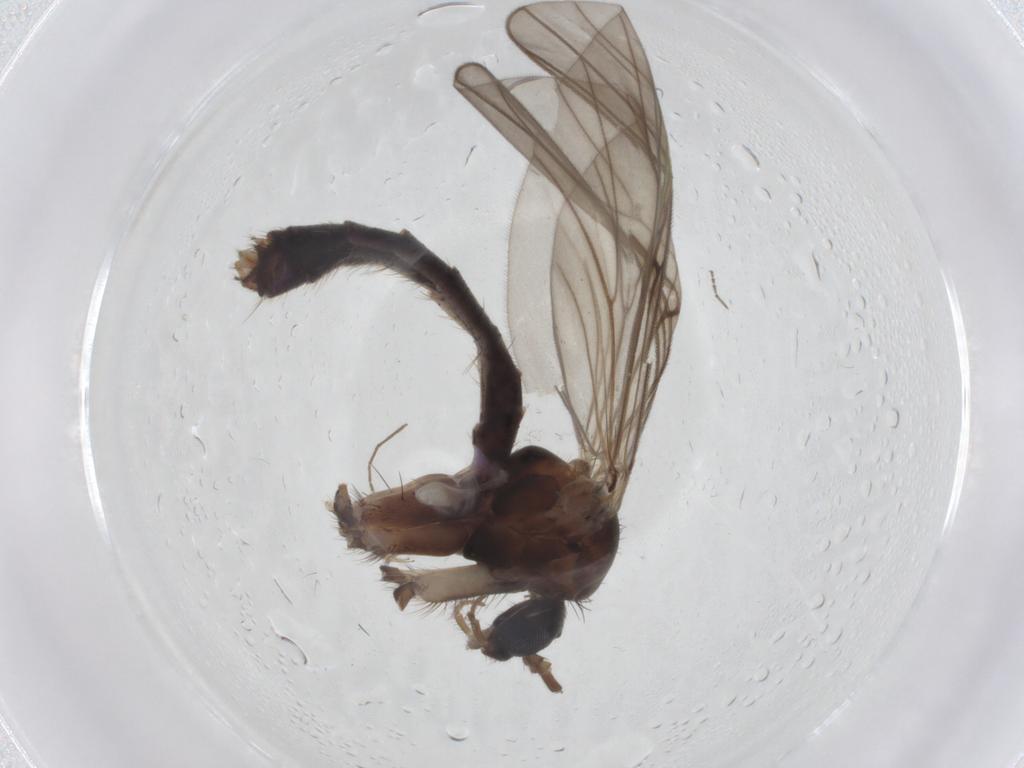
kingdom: Animalia
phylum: Arthropoda
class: Insecta
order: Diptera
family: Mycetophilidae
